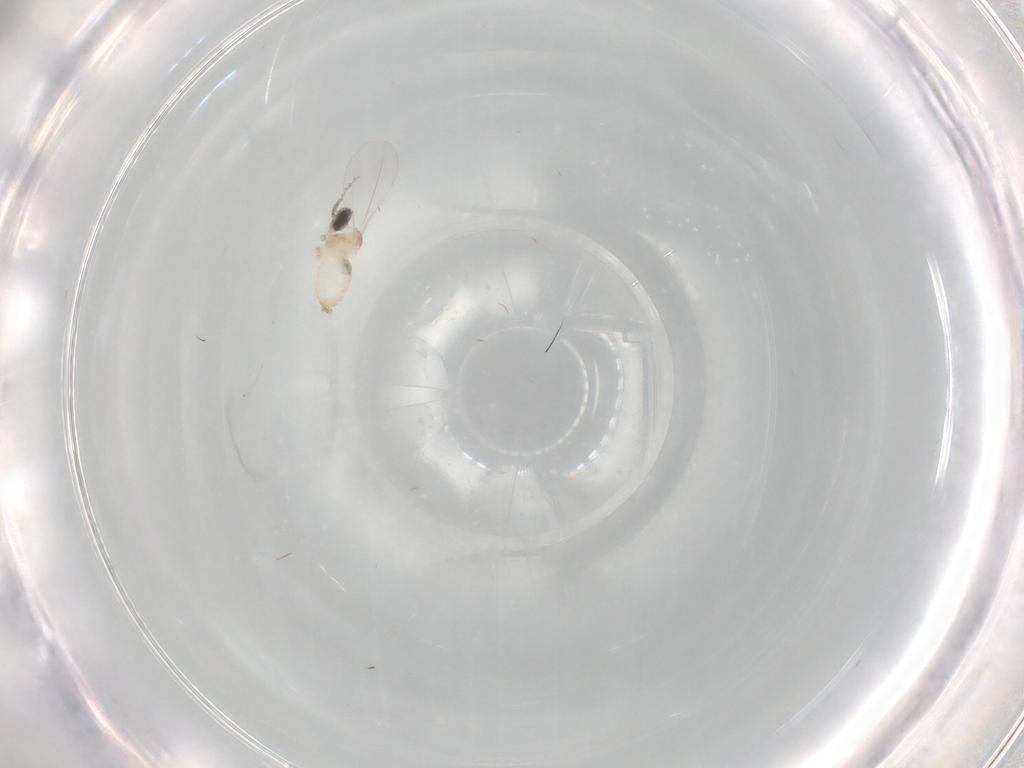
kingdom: Animalia
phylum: Arthropoda
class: Insecta
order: Diptera
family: Cecidomyiidae
